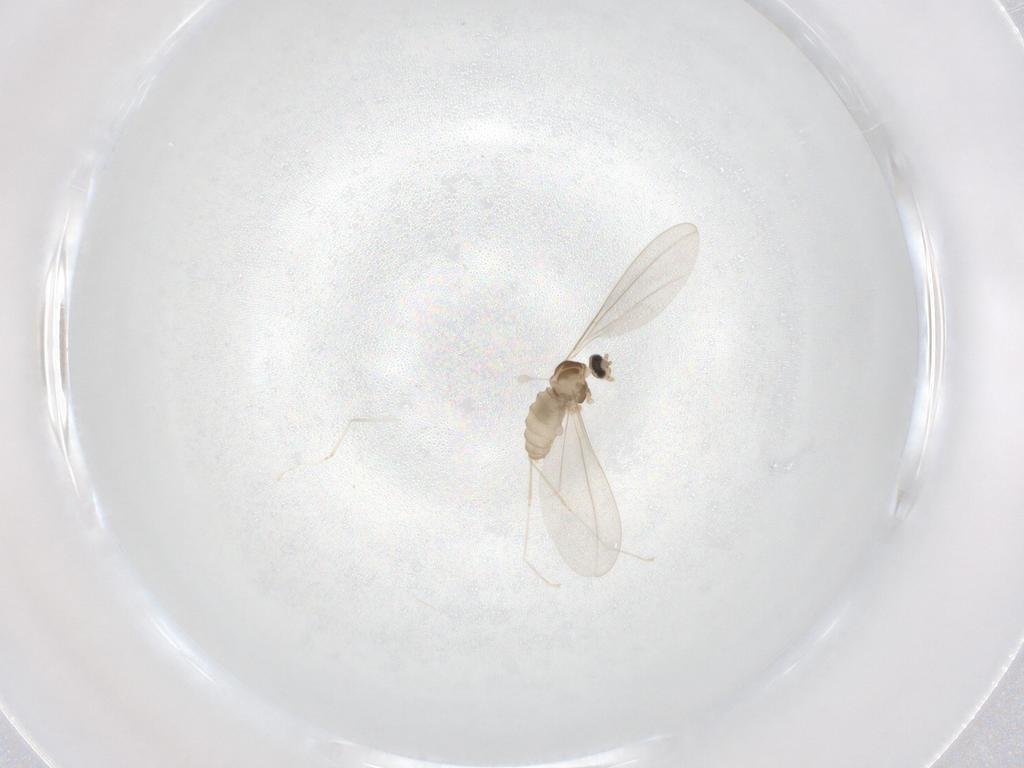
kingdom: Animalia
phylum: Arthropoda
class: Insecta
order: Diptera
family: Cecidomyiidae
